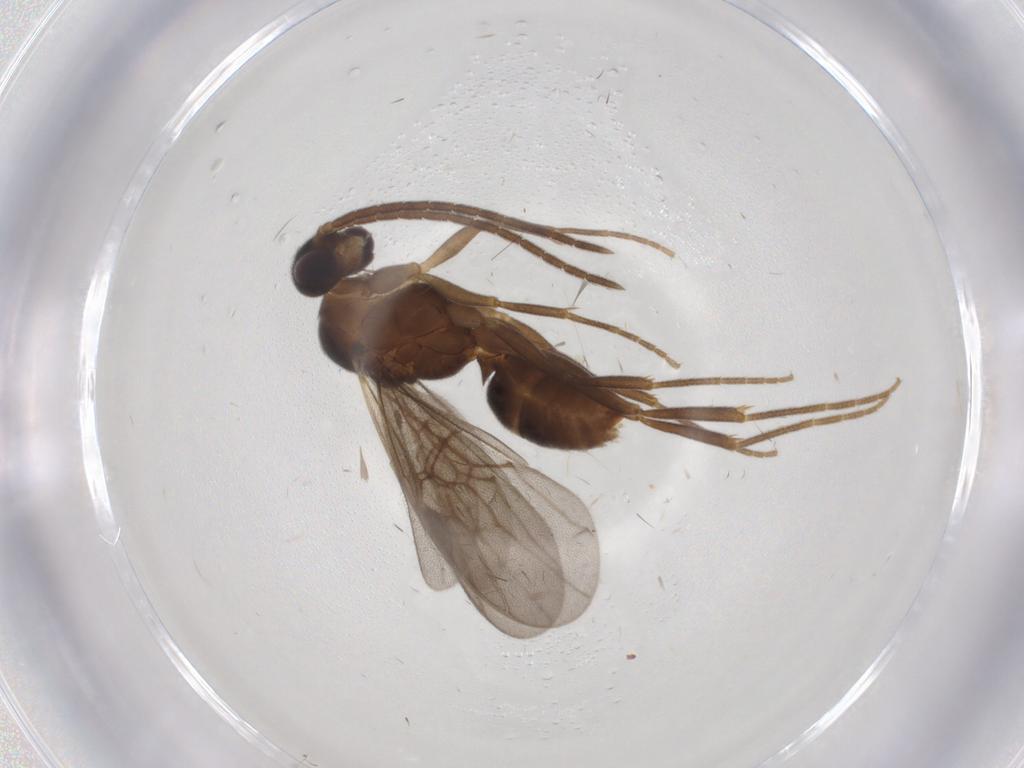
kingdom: Animalia
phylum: Arthropoda
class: Insecta
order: Hymenoptera
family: Formicidae
